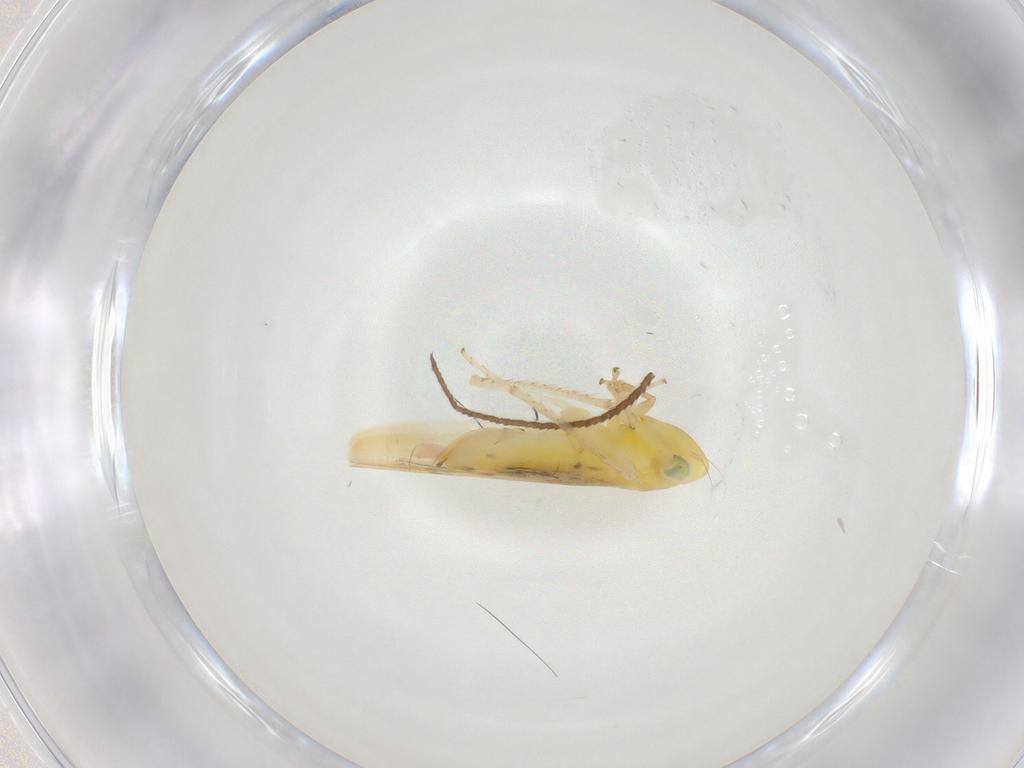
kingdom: Animalia
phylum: Arthropoda
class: Insecta
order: Hemiptera
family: Cicadellidae
